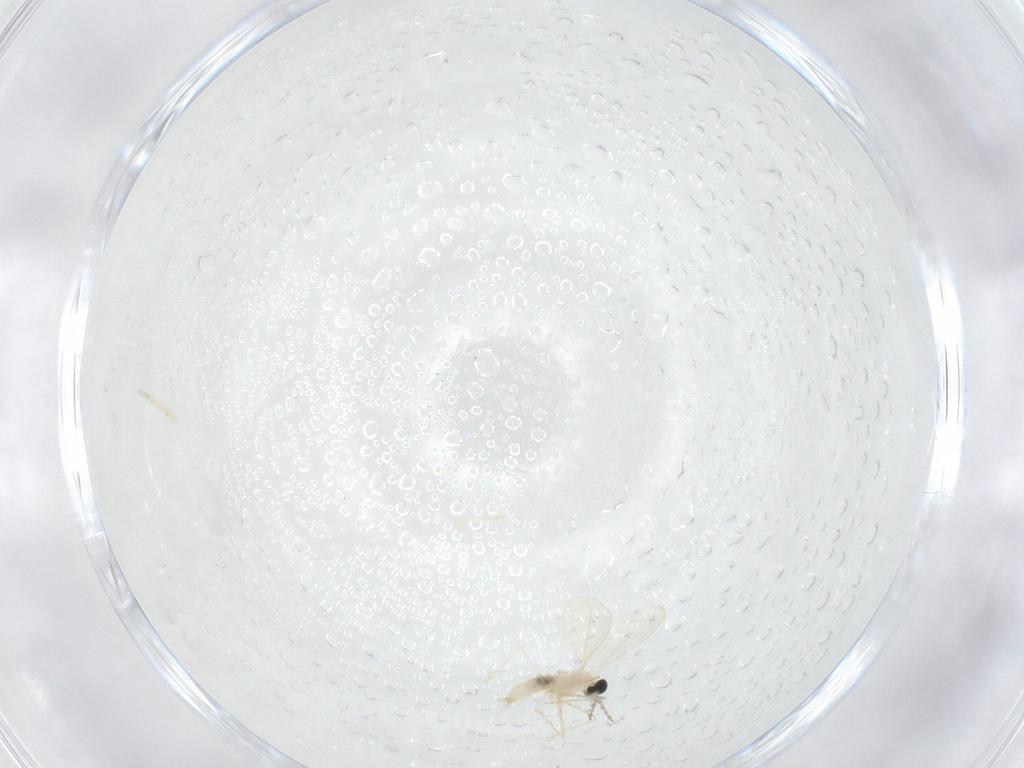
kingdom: Animalia
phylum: Arthropoda
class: Insecta
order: Diptera
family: Cecidomyiidae
